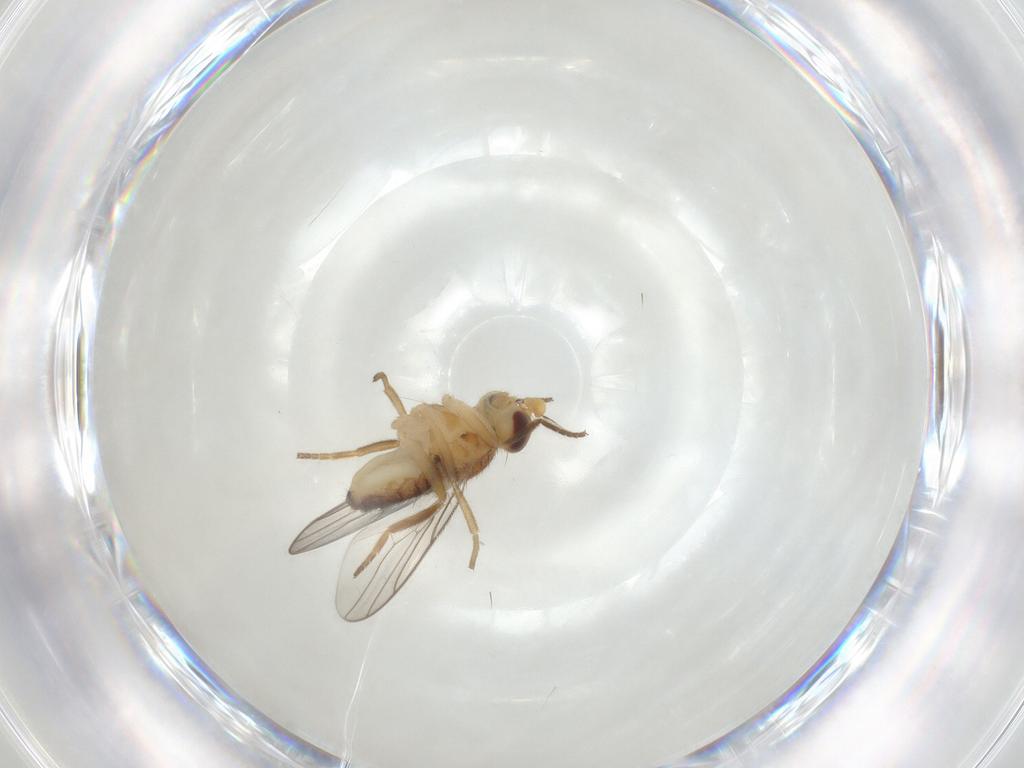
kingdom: Animalia
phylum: Arthropoda
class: Insecta
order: Diptera
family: Chloropidae
